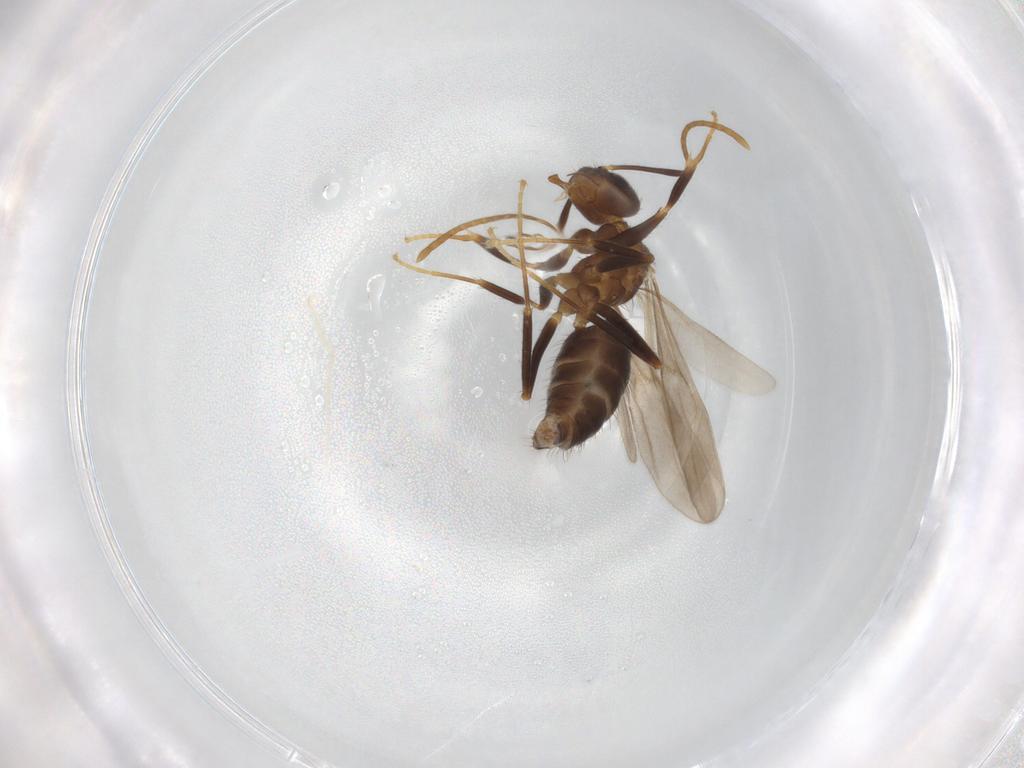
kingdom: Animalia
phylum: Arthropoda
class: Insecta
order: Hymenoptera
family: Formicidae
